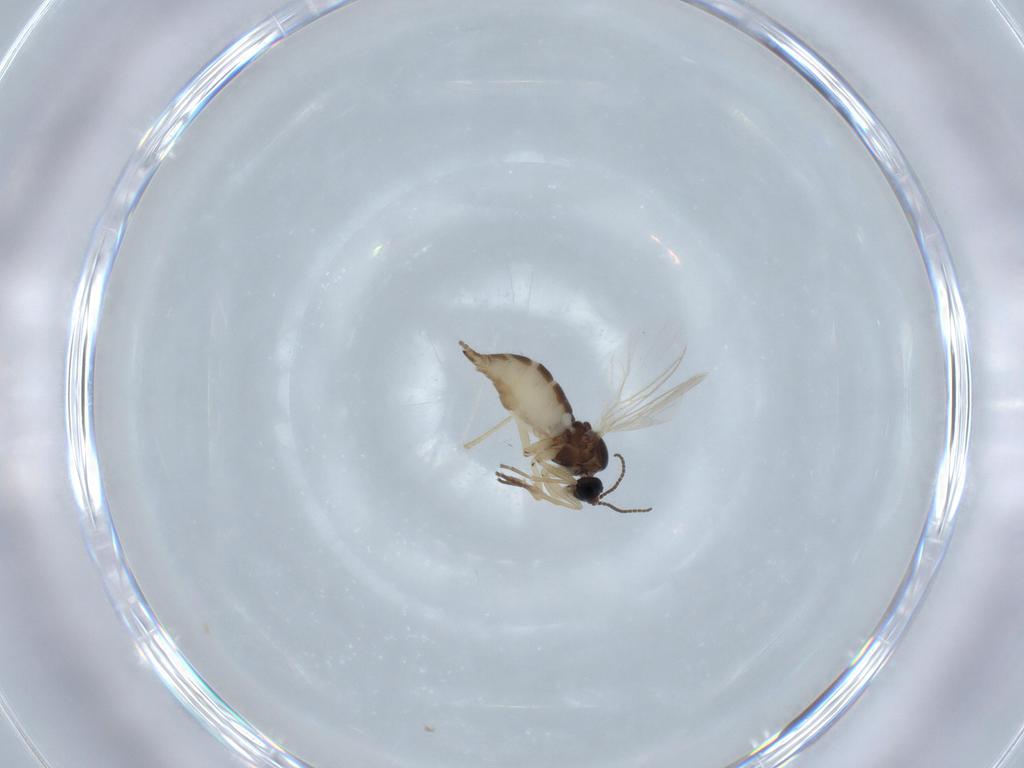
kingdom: Animalia
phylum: Arthropoda
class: Insecta
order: Diptera
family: Sciaridae
